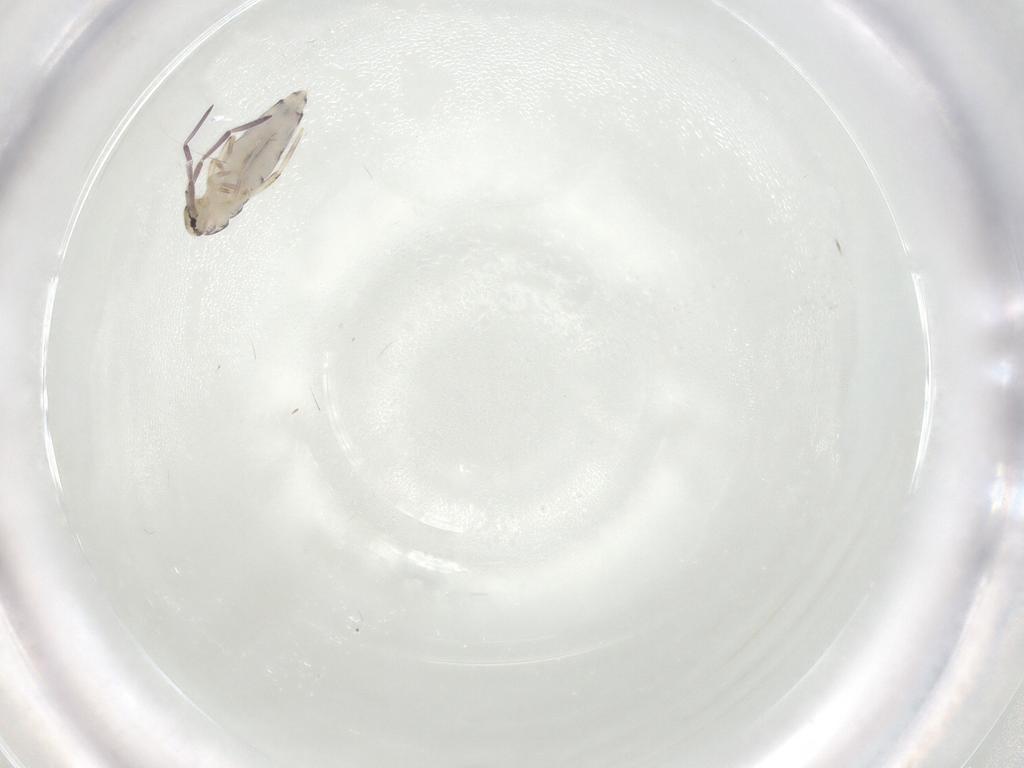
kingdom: Animalia
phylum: Arthropoda
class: Collembola
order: Entomobryomorpha
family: Entomobryidae
